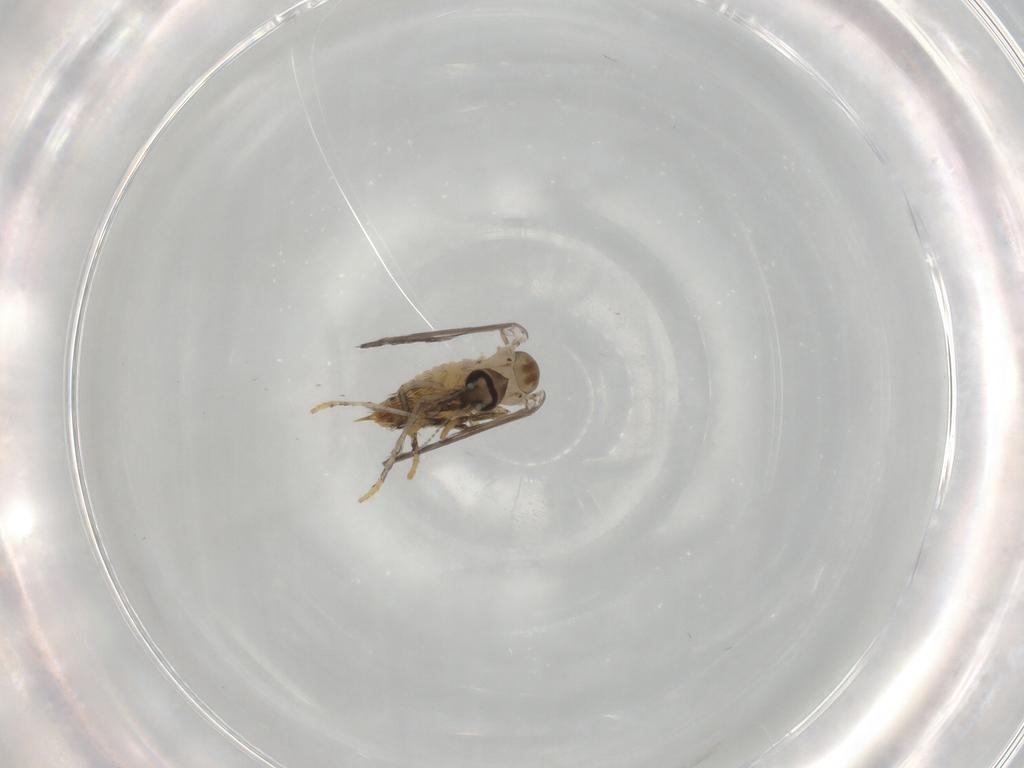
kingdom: Animalia
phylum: Arthropoda
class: Insecta
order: Diptera
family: Psychodidae
